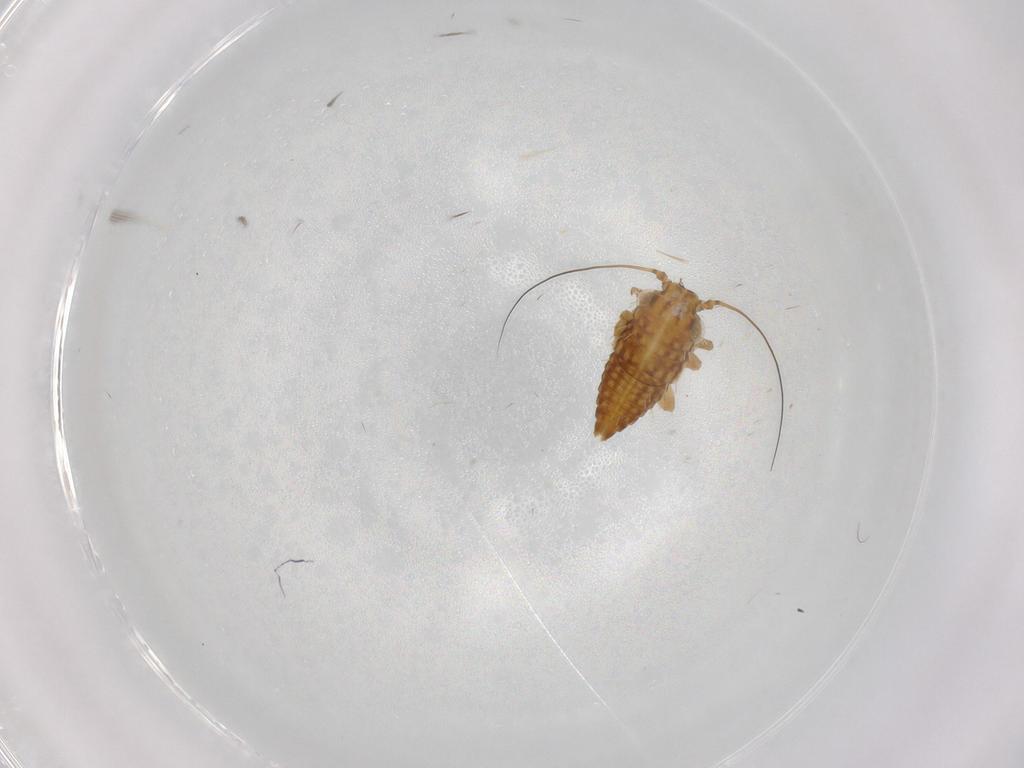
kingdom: Animalia
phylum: Arthropoda
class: Insecta
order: Hemiptera
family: Cicadellidae
